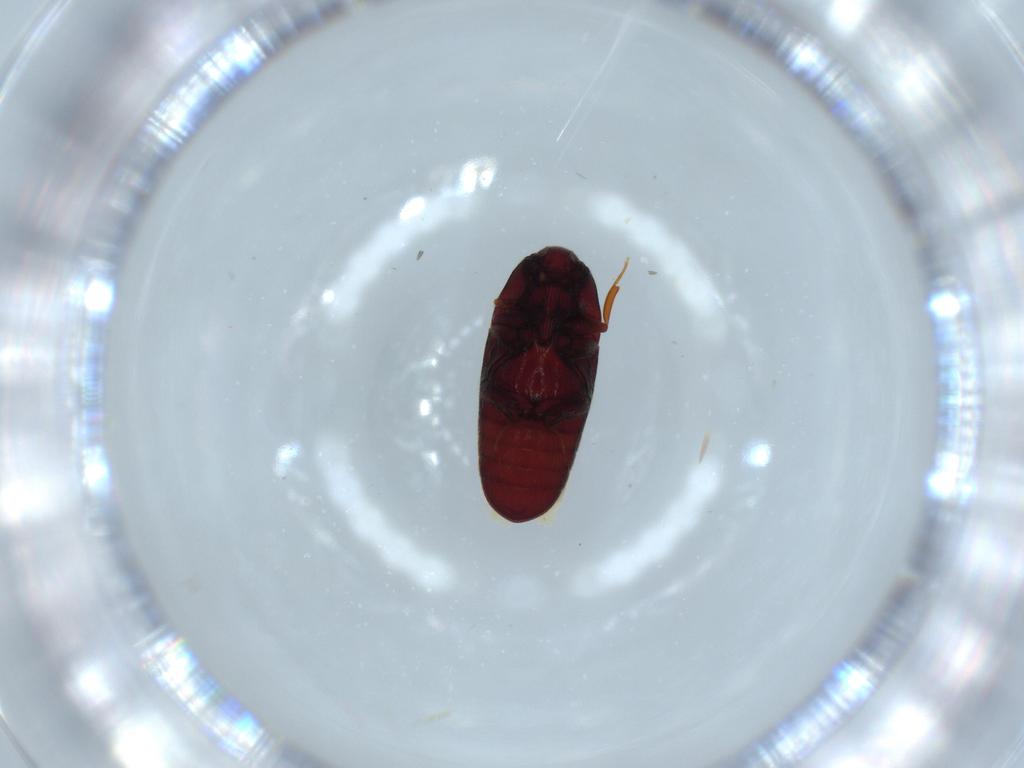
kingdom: Animalia
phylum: Arthropoda
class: Insecta
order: Coleoptera
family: Throscidae
